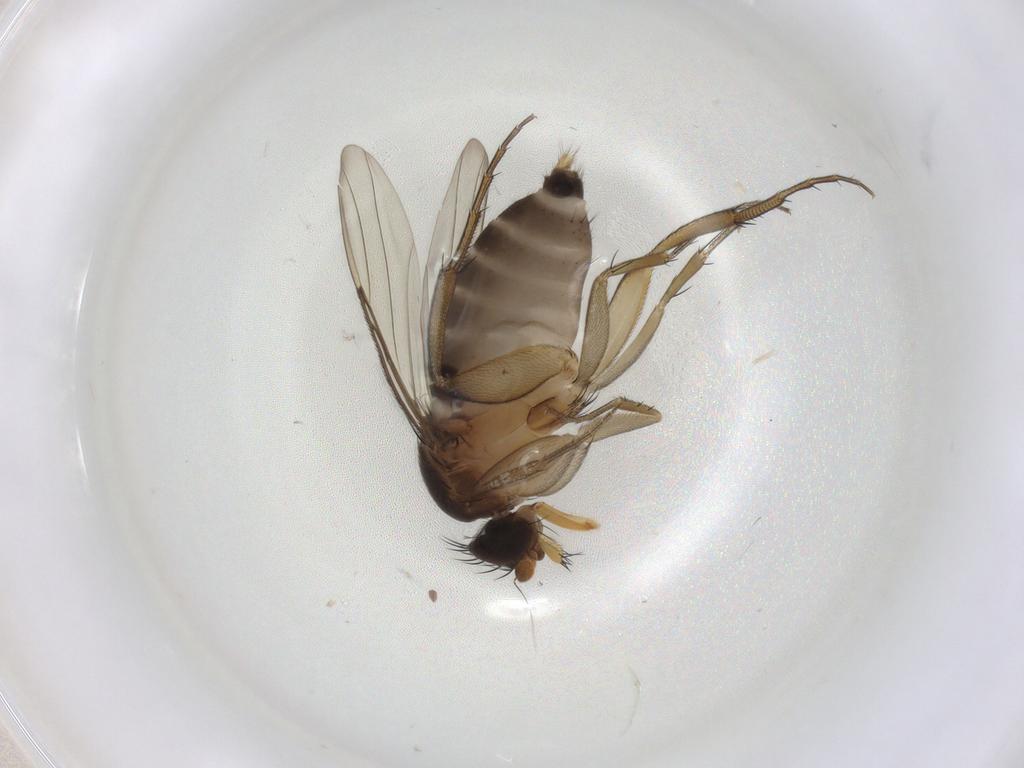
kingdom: Animalia
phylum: Arthropoda
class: Insecta
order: Diptera
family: Phoridae
